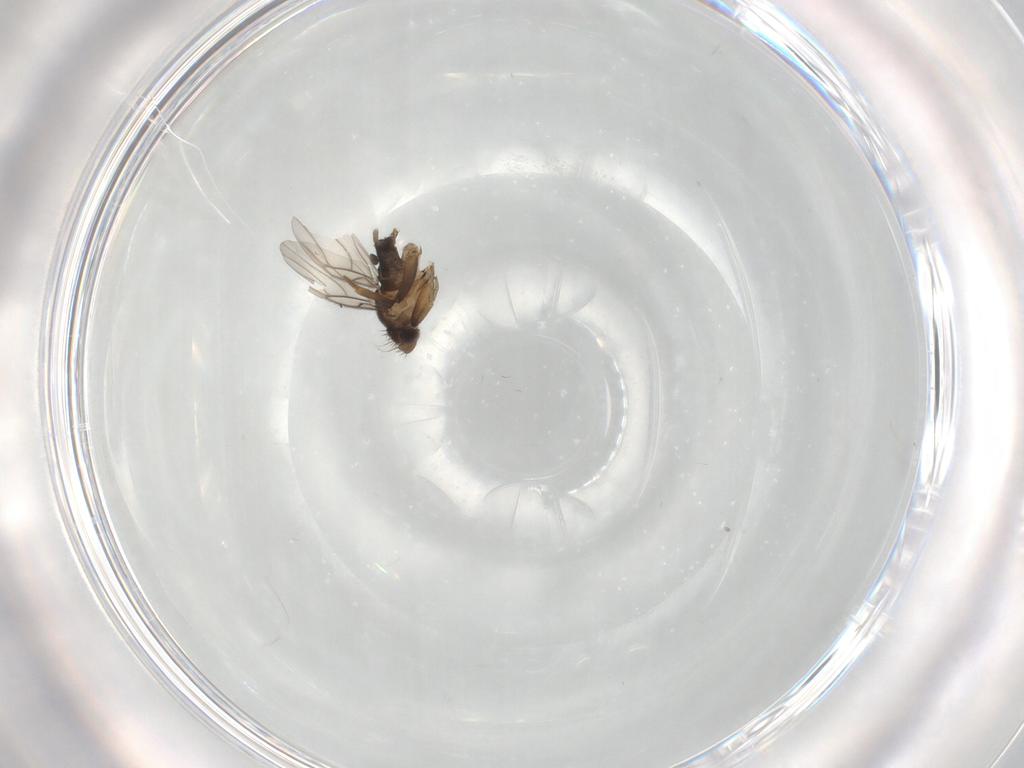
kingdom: Animalia
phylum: Arthropoda
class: Insecta
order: Diptera
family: Phoridae
